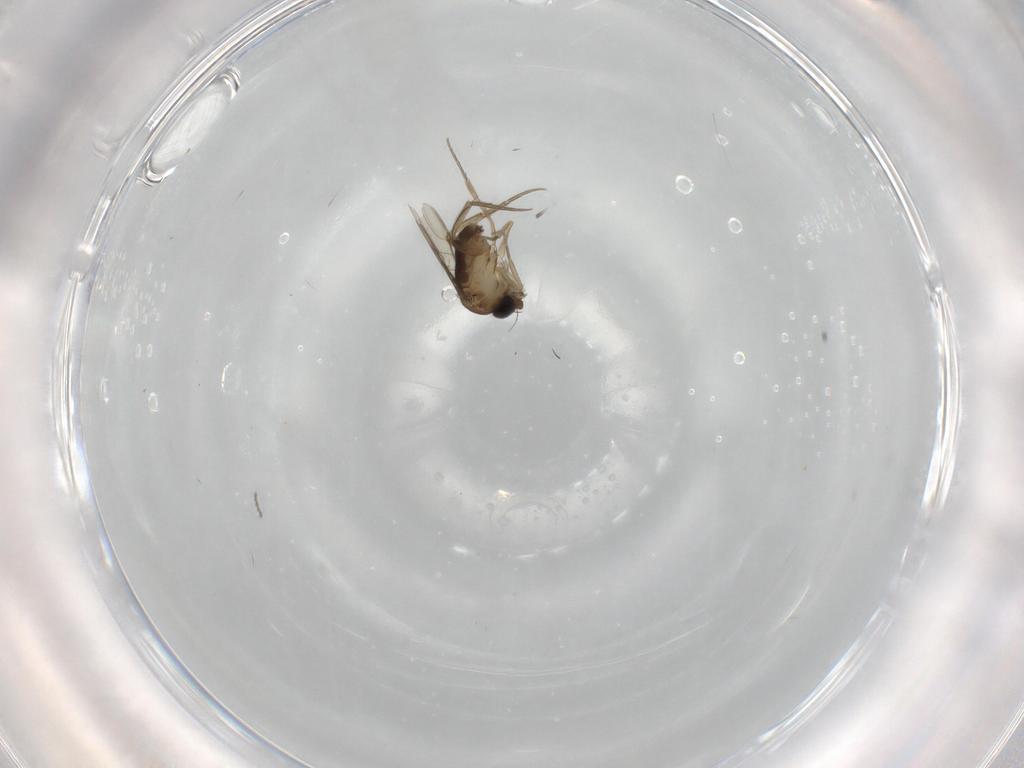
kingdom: Animalia
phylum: Arthropoda
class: Insecta
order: Diptera
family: Phoridae
